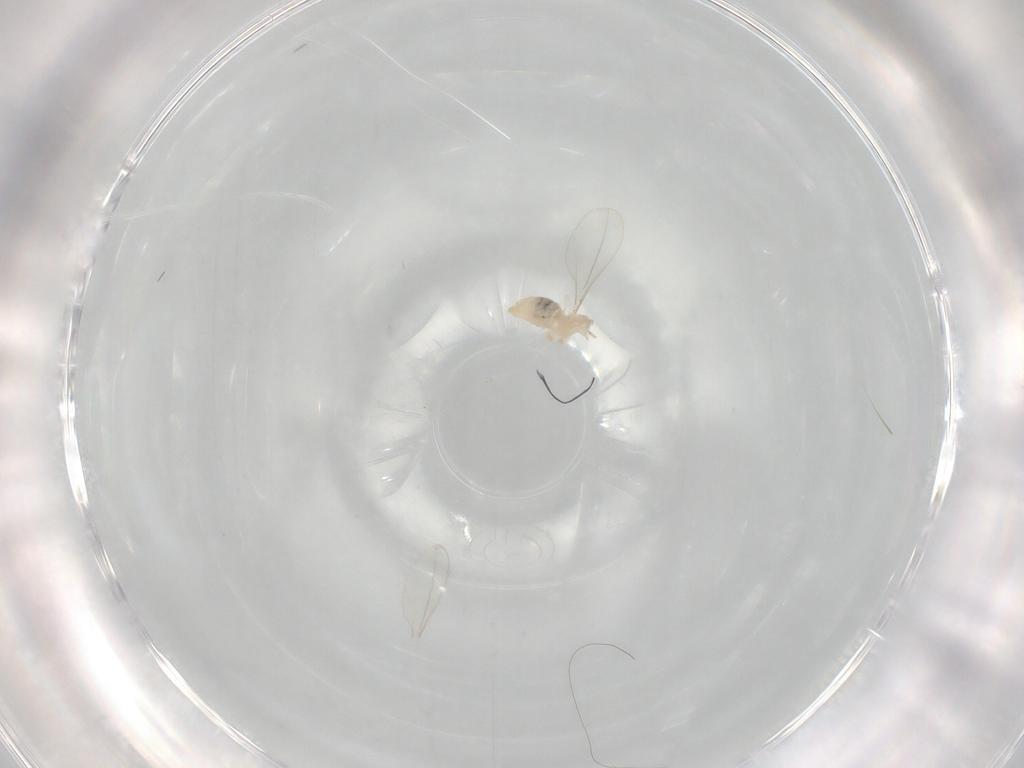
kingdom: Animalia
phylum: Arthropoda
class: Insecta
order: Diptera
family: Cecidomyiidae
